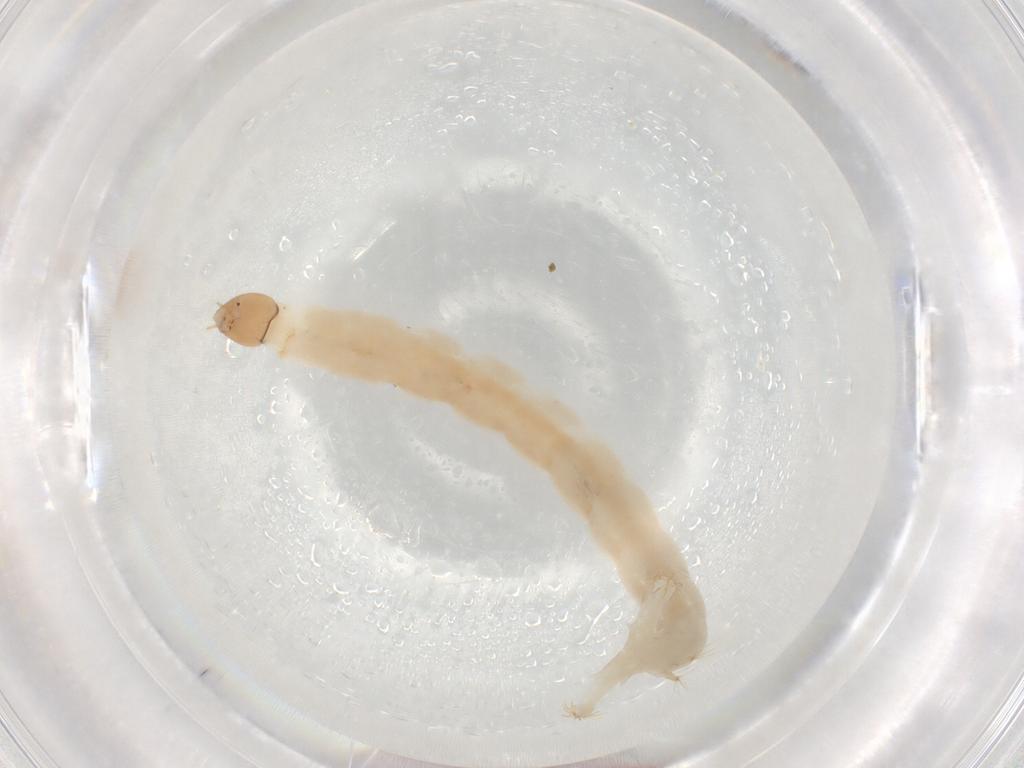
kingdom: Animalia
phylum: Arthropoda
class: Insecta
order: Diptera
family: Chironomidae
